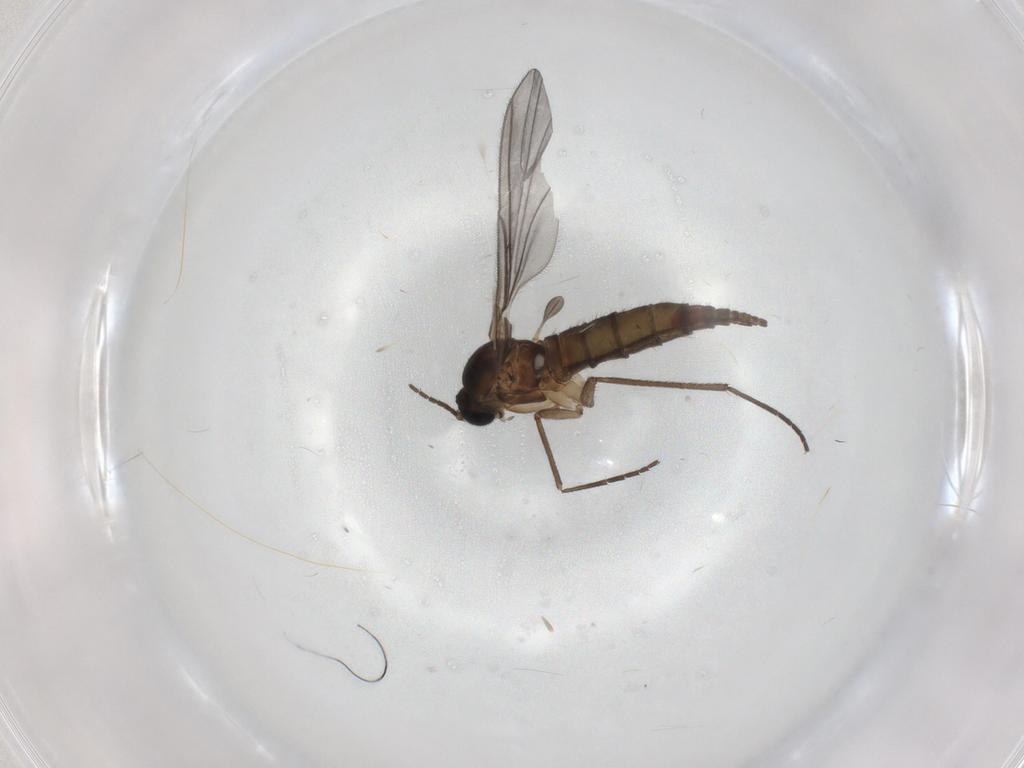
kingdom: Animalia
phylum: Arthropoda
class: Insecta
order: Diptera
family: Sciaridae
